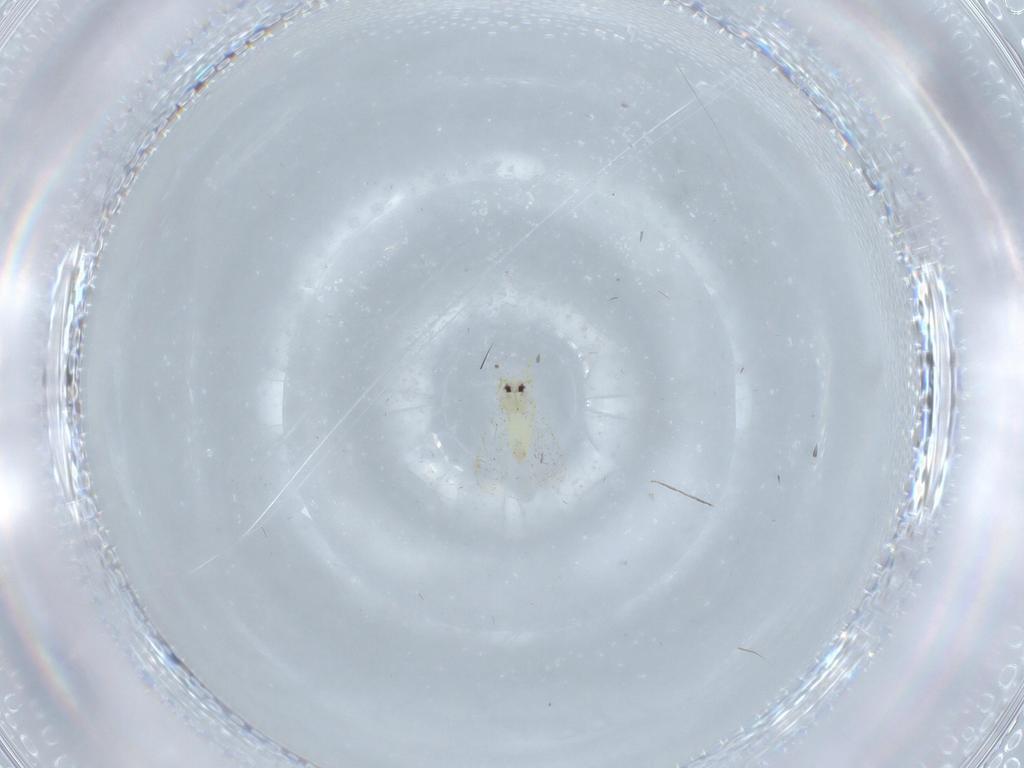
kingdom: Animalia
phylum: Arthropoda
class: Insecta
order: Hemiptera
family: Aleyrodidae
